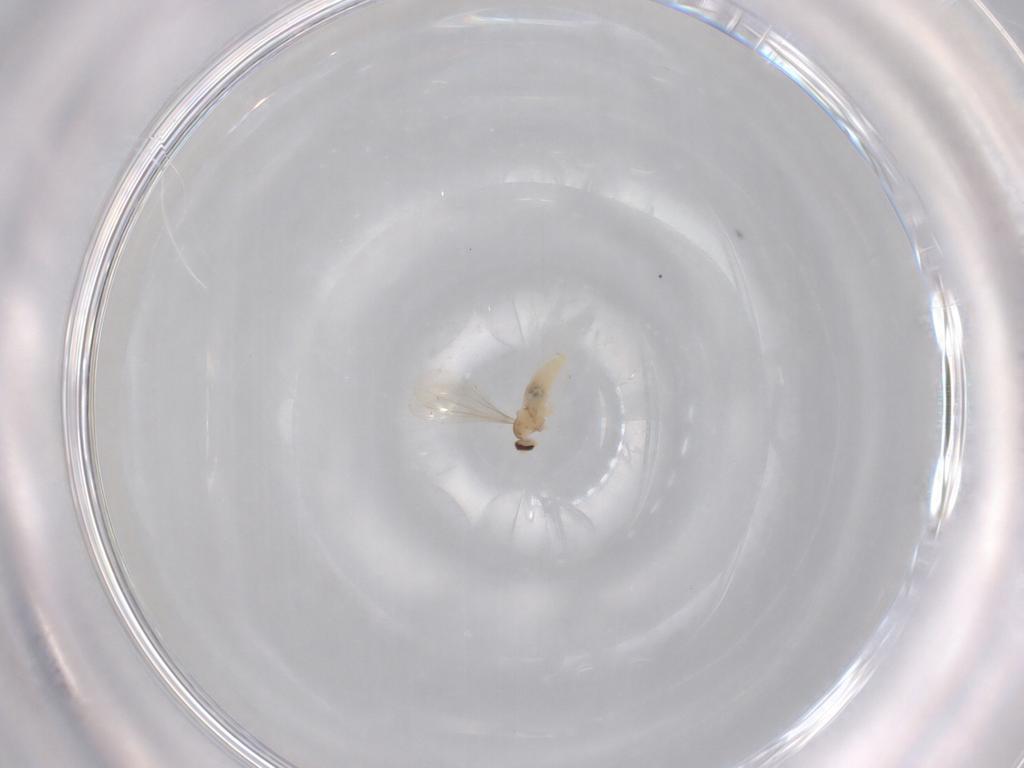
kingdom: Animalia
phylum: Arthropoda
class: Insecta
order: Diptera
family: Cecidomyiidae
